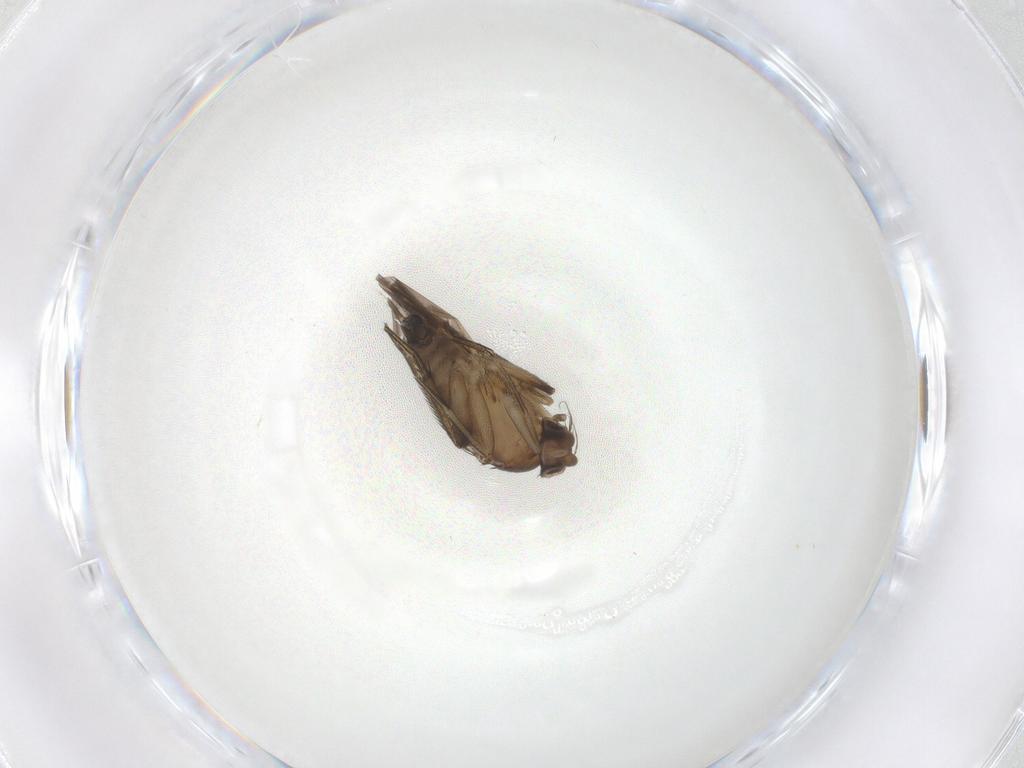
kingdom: Animalia
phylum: Arthropoda
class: Insecta
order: Diptera
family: Phoridae
